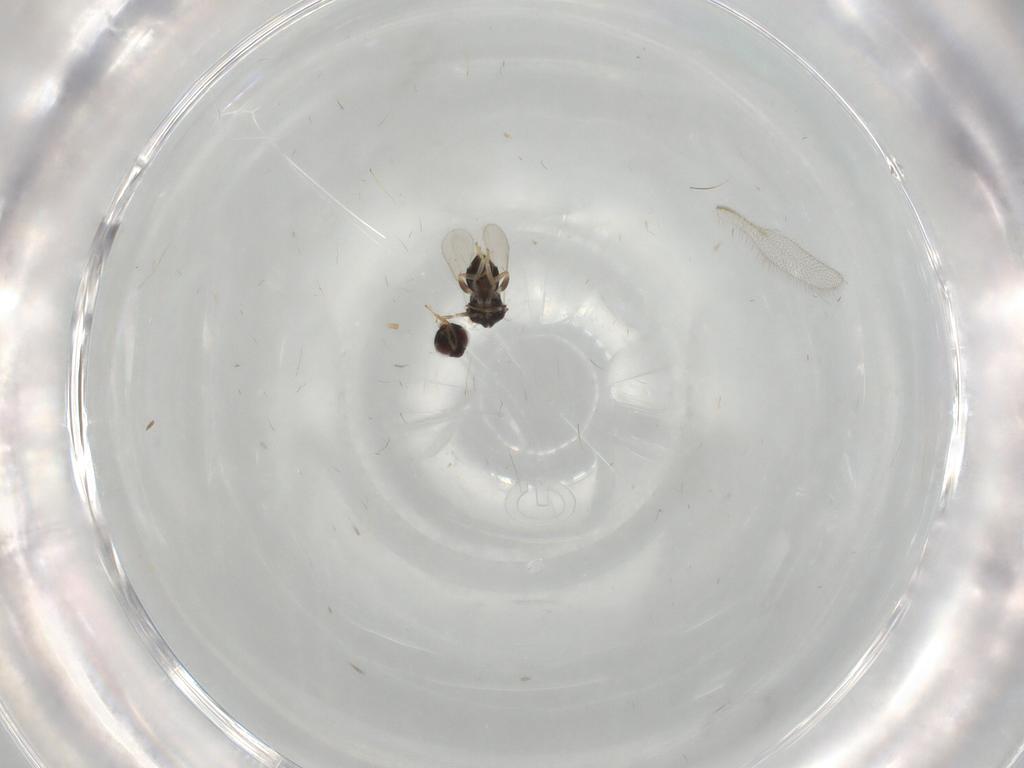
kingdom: Animalia
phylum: Arthropoda
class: Insecta
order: Hymenoptera
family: Aphelinidae
